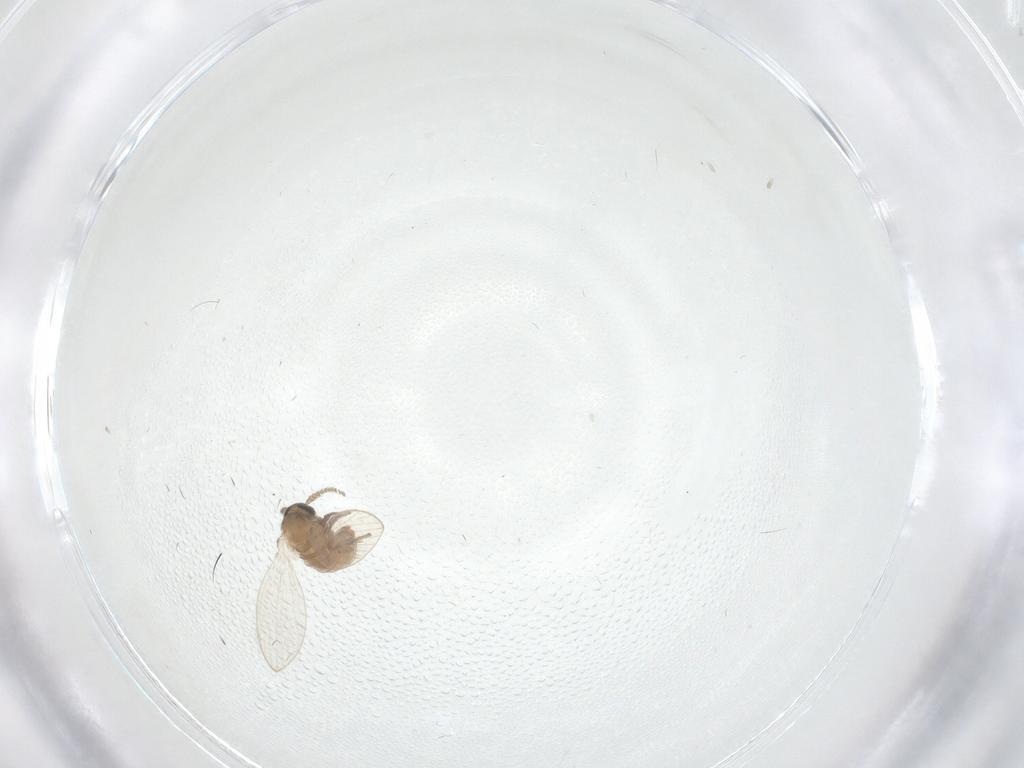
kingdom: Animalia
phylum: Arthropoda
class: Insecta
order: Diptera
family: Psychodidae
